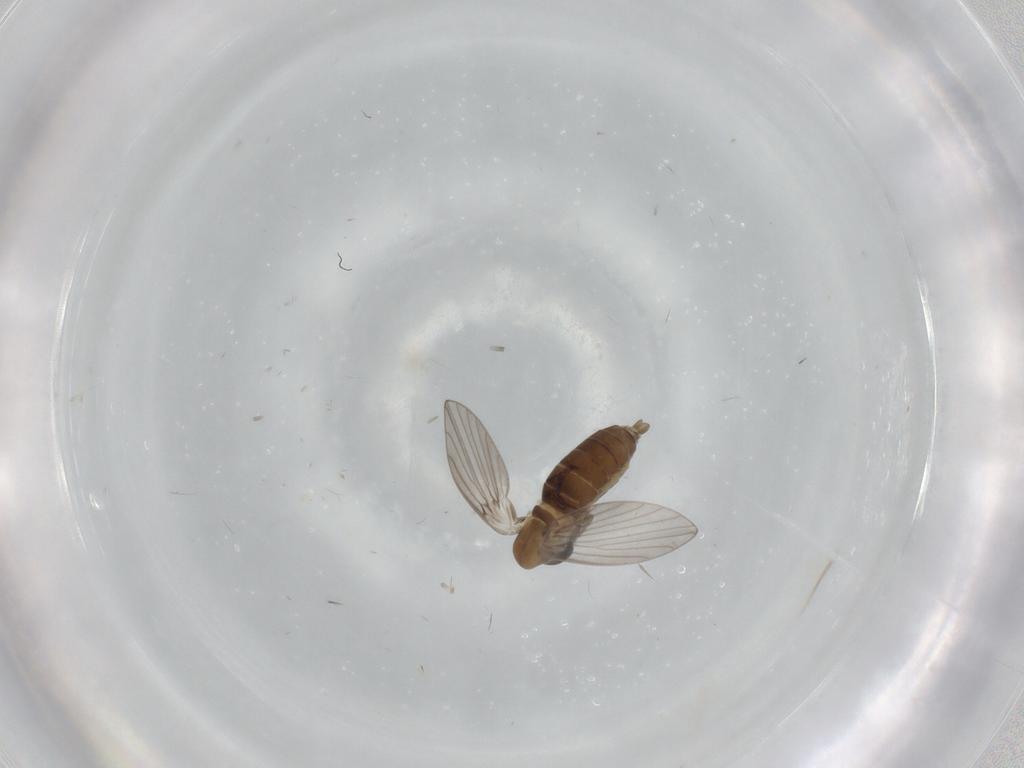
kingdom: Animalia
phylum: Arthropoda
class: Insecta
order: Diptera
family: Psychodidae
